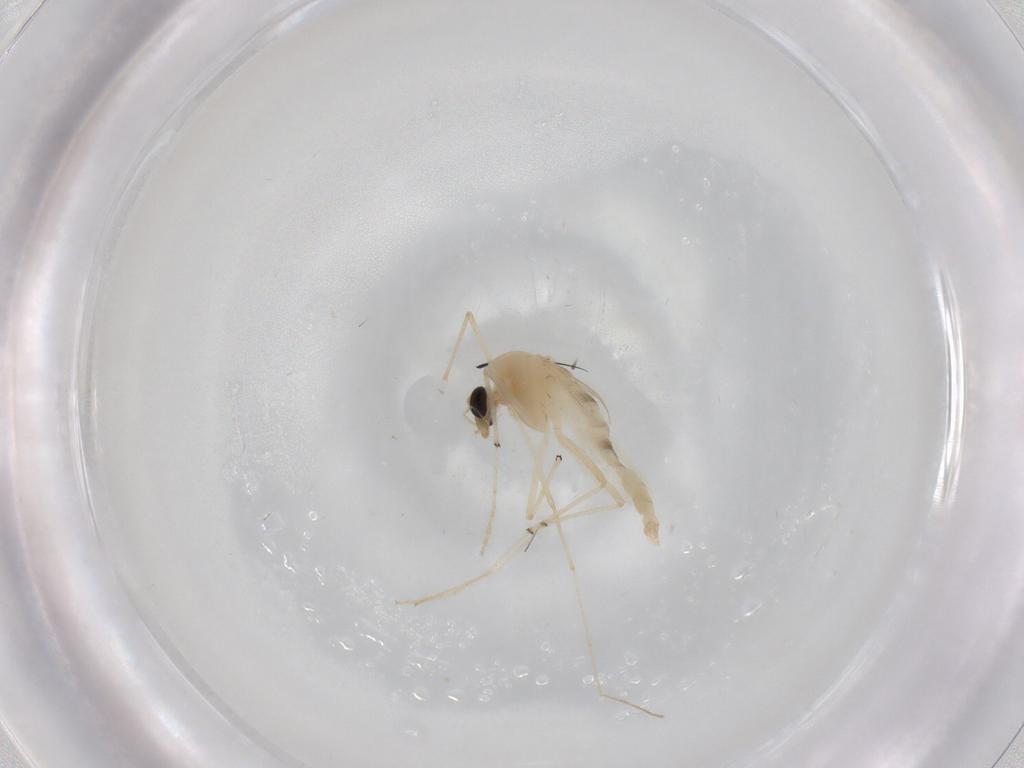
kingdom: Animalia
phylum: Arthropoda
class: Insecta
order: Diptera
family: Chironomidae
